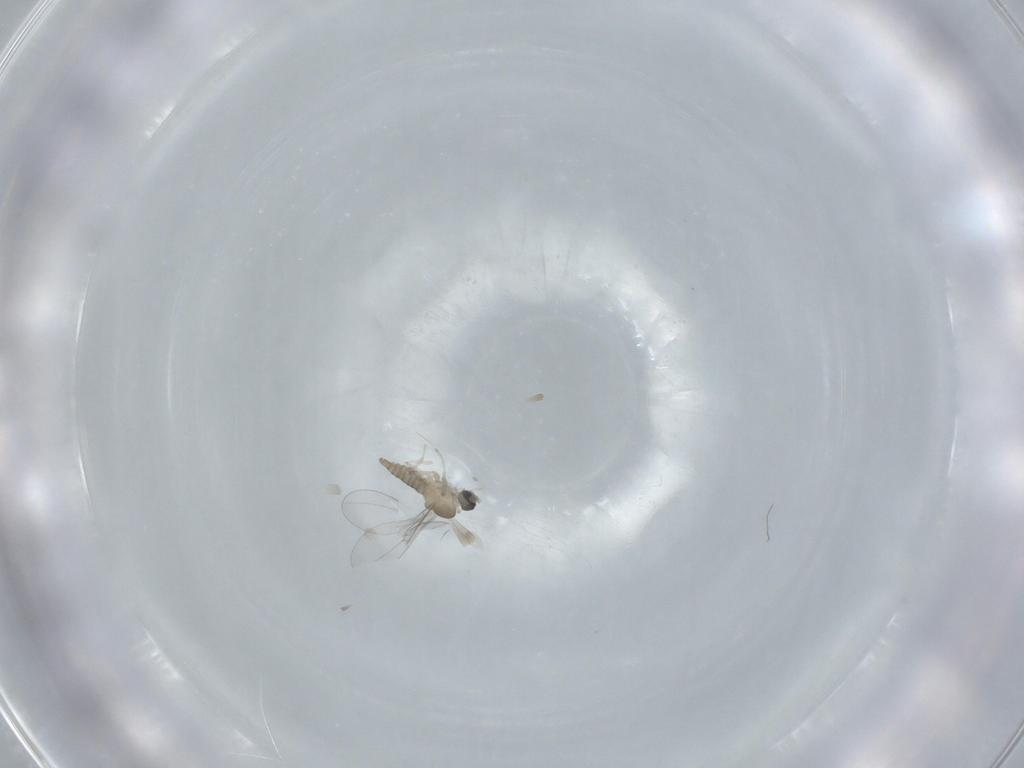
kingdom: Animalia
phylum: Arthropoda
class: Insecta
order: Diptera
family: Cecidomyiidae
